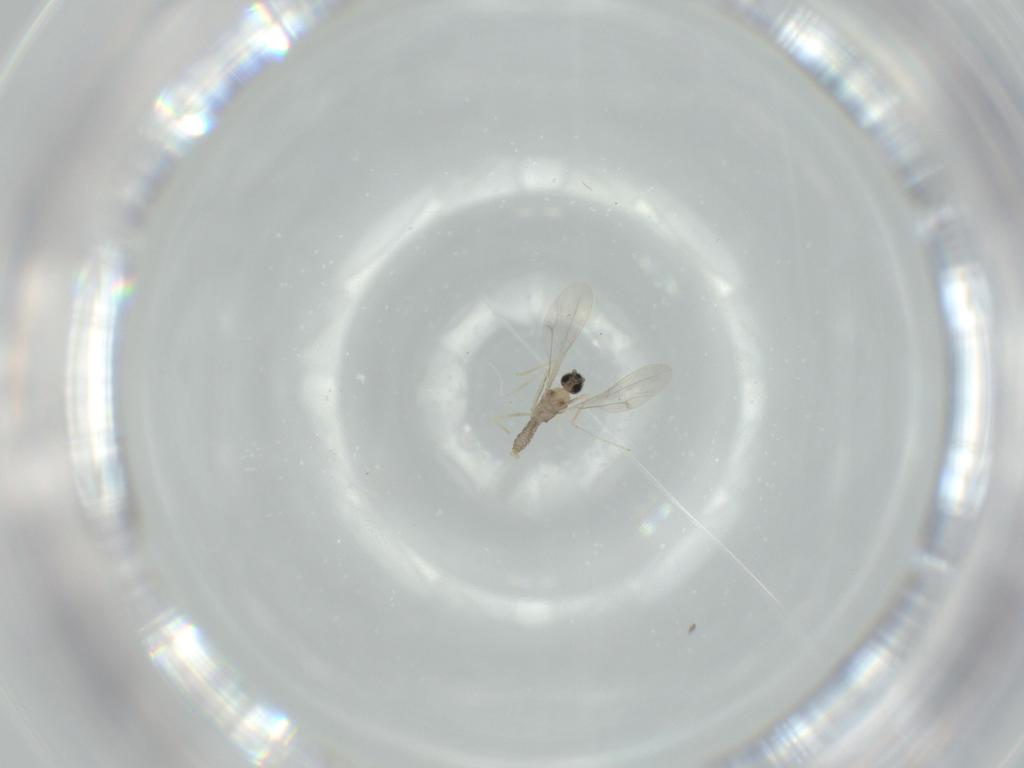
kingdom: Animalia
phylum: Arthropoda
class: Insecta
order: Diptera
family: Cecidomyiidae
